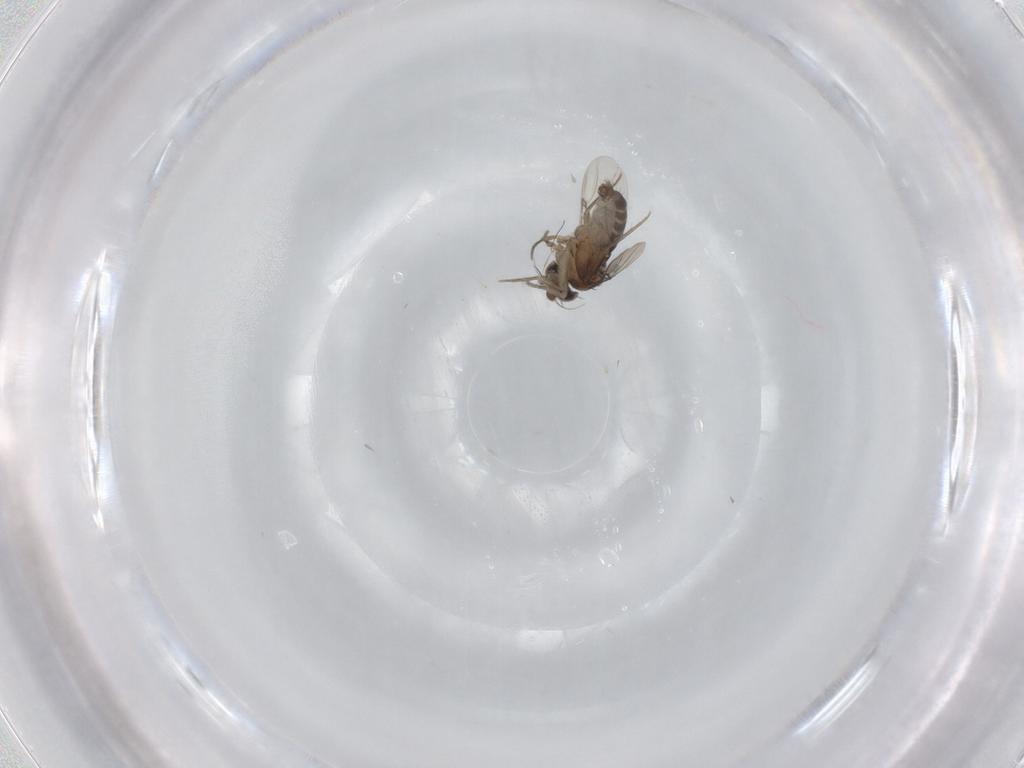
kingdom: Animalia
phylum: Arthropoda
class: Insecta
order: Diptera
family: Phoridae
